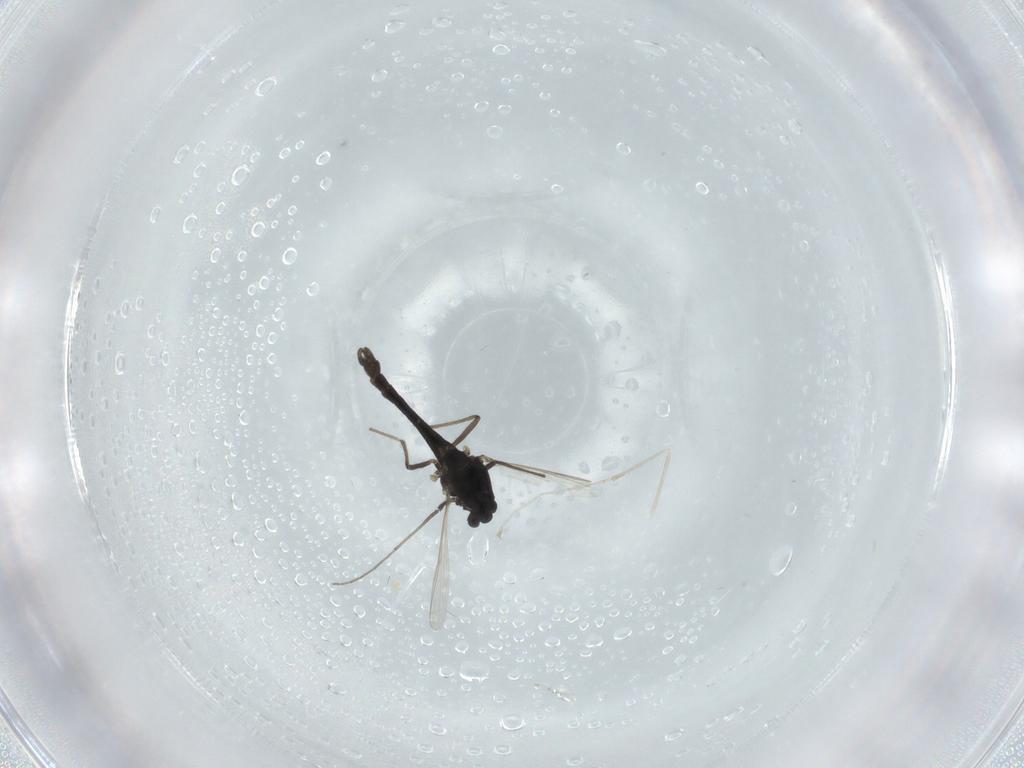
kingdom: Animalia
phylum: Arthropoda
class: Insecta
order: Diptera
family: Chironomidae
